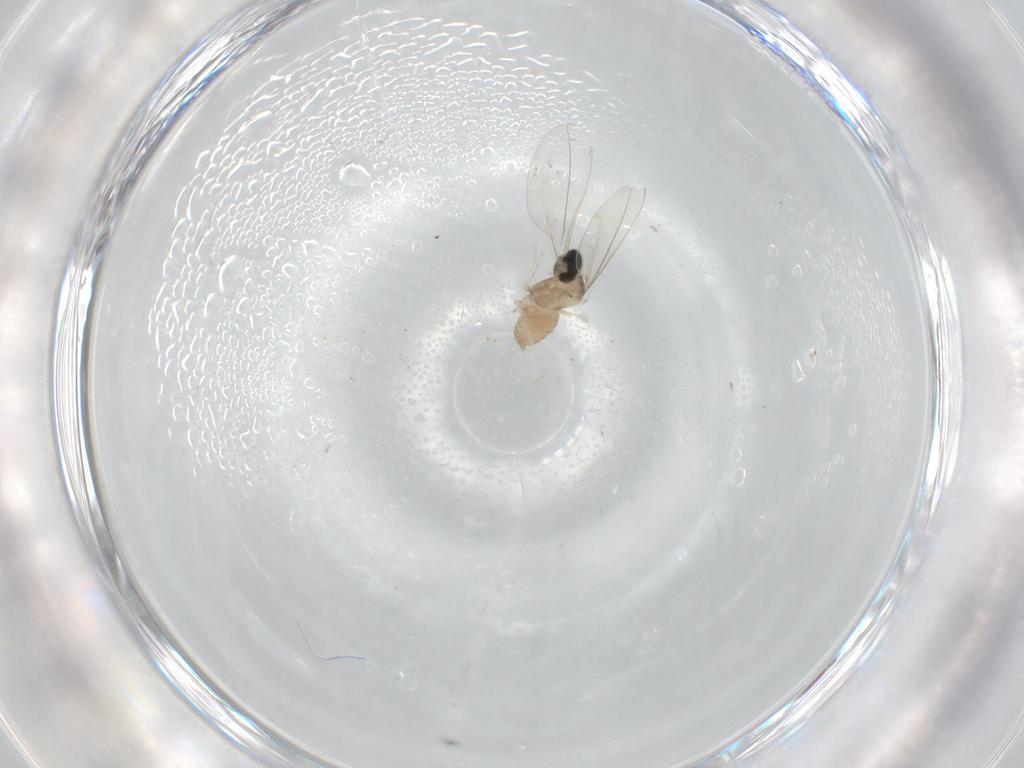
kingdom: Animalia
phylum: Arthropoda
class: Insecta
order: Diptera
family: Cecidomyiidae
